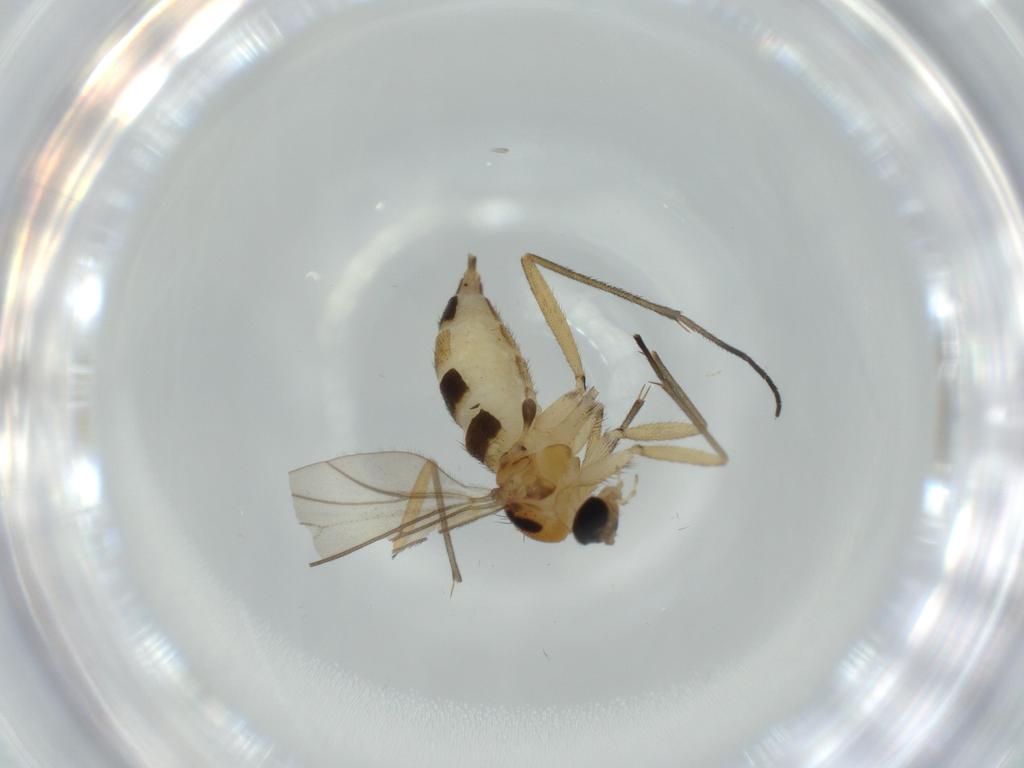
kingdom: Animalia
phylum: Arthropoda
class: Insecta
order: Diptera
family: Sciaridae
